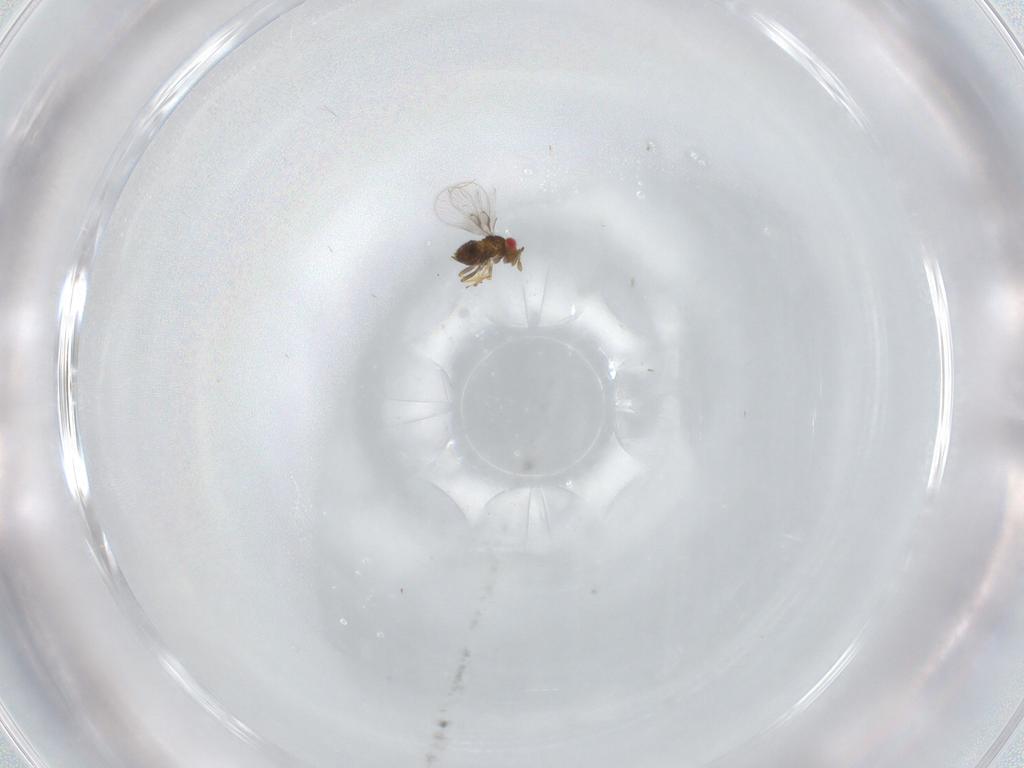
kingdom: Animalia
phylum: Arthropoda
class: Insecta
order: Hymenoptera
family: Trichogrammatidae
